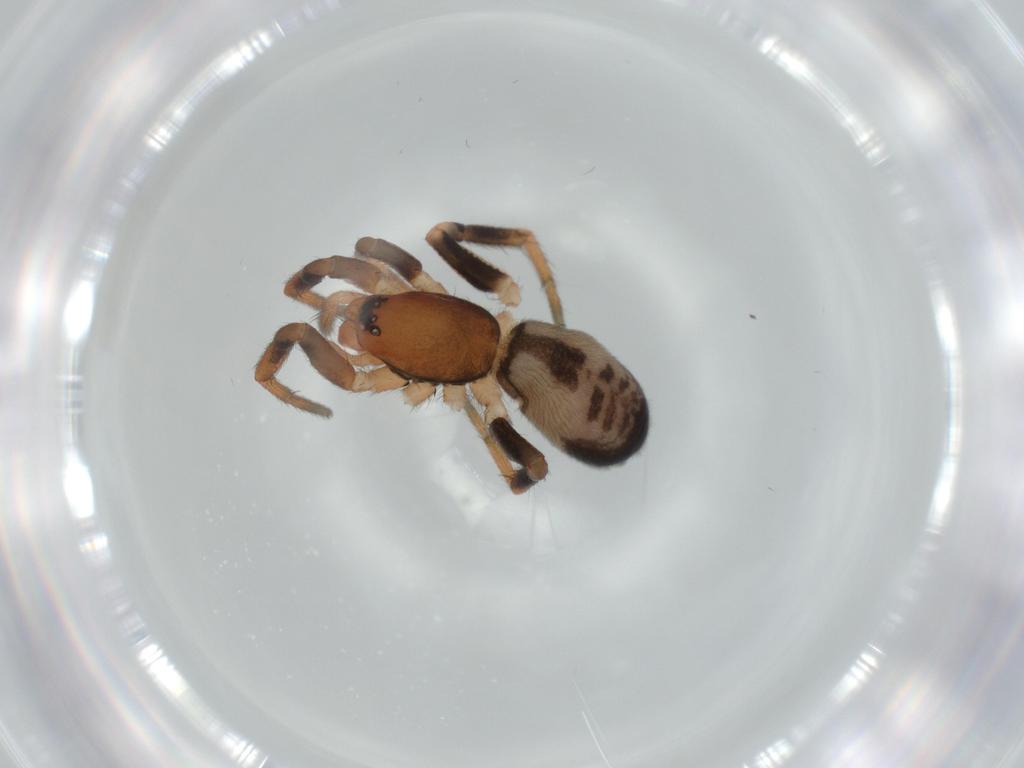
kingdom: Animalia
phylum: Arthropoda
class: Arachnida
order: Araneae
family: Gnaphosidae
